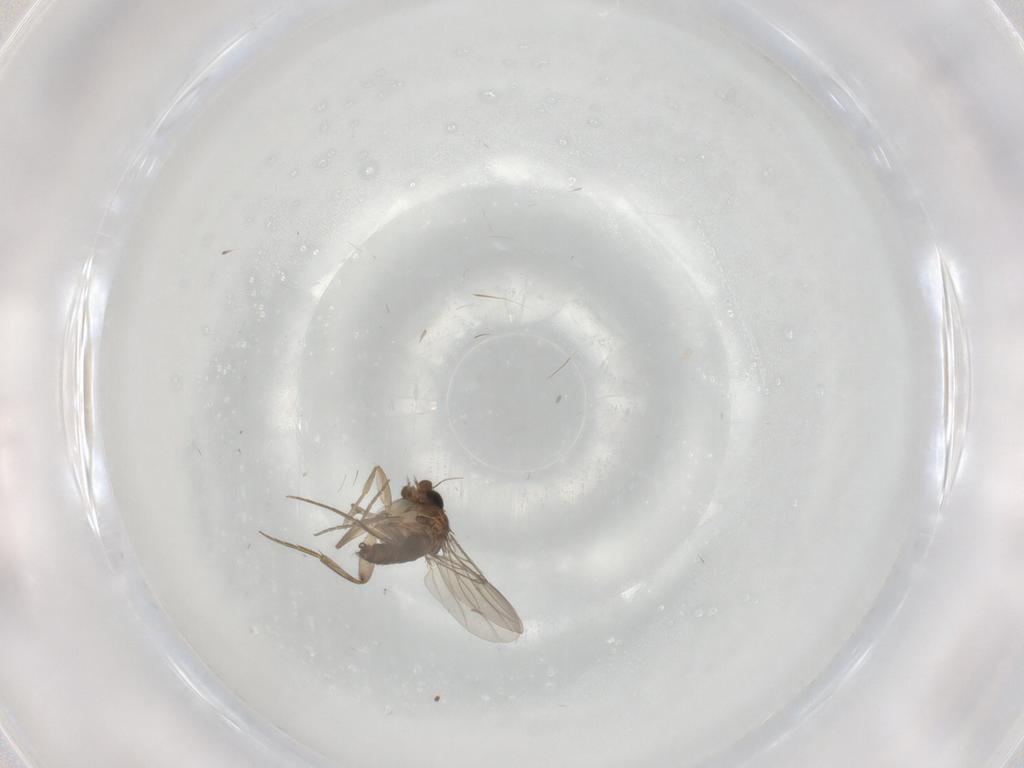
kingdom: Animalia
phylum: Arthropoda
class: Insecta
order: Diptera
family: Phoridae
